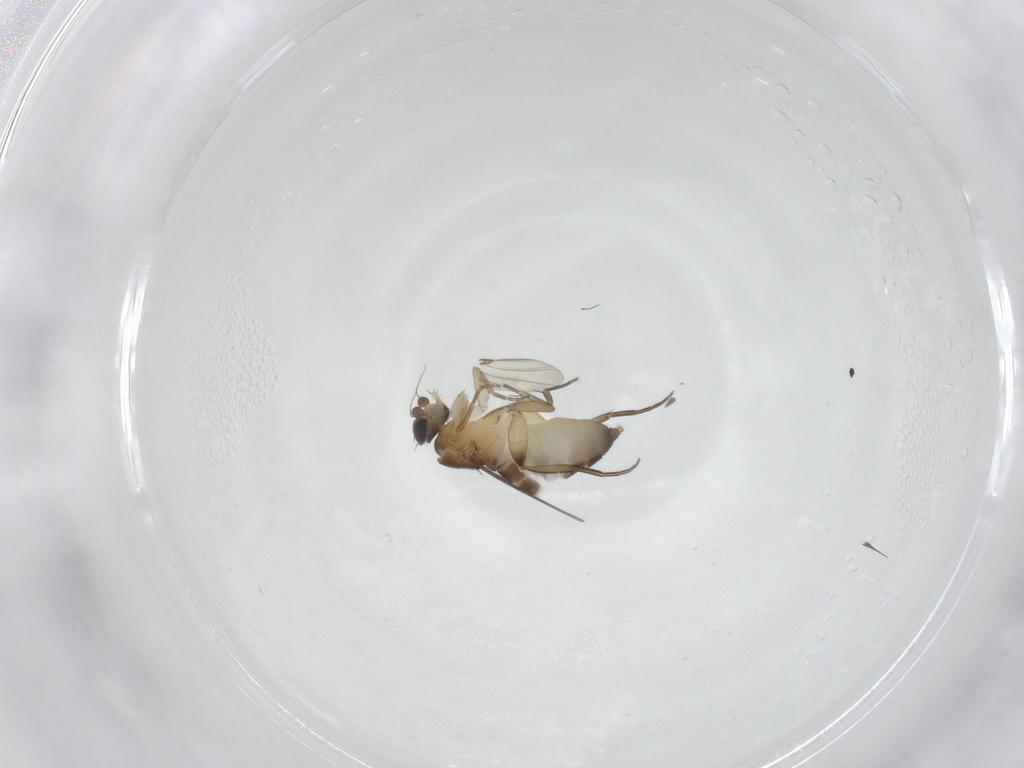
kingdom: Animalia
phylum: Arthropoda
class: Insecta
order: Diptera
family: Phoridae
